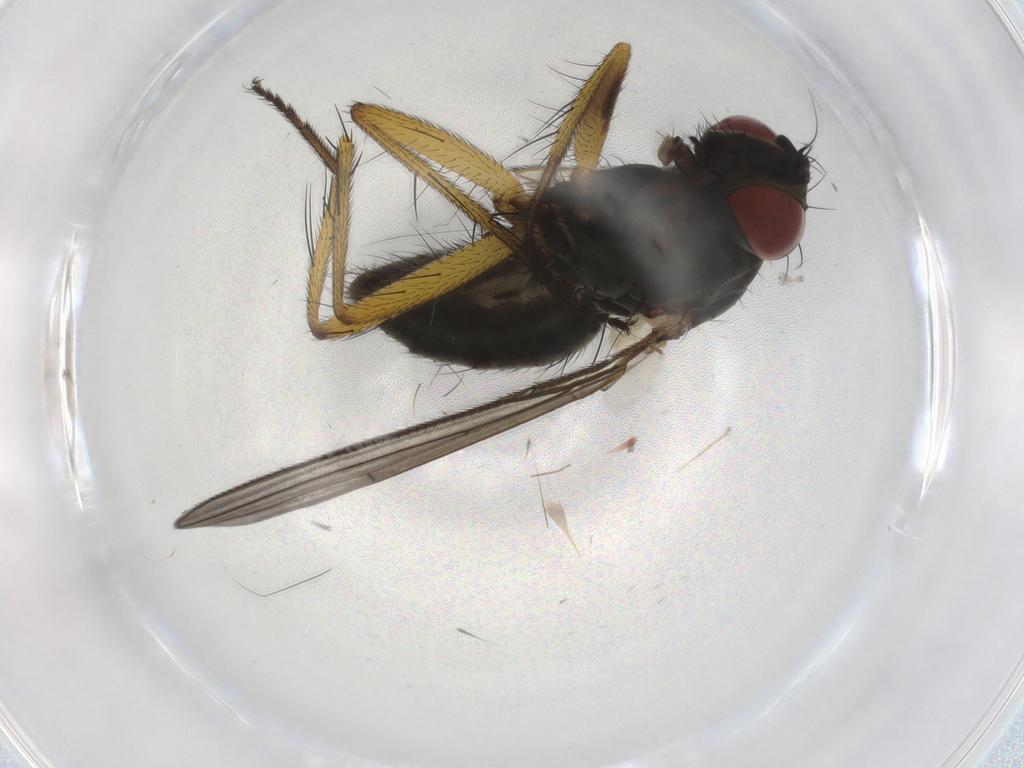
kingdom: Animalia
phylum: Arthropoda
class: Insecta
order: Diptera
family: Muscidae
